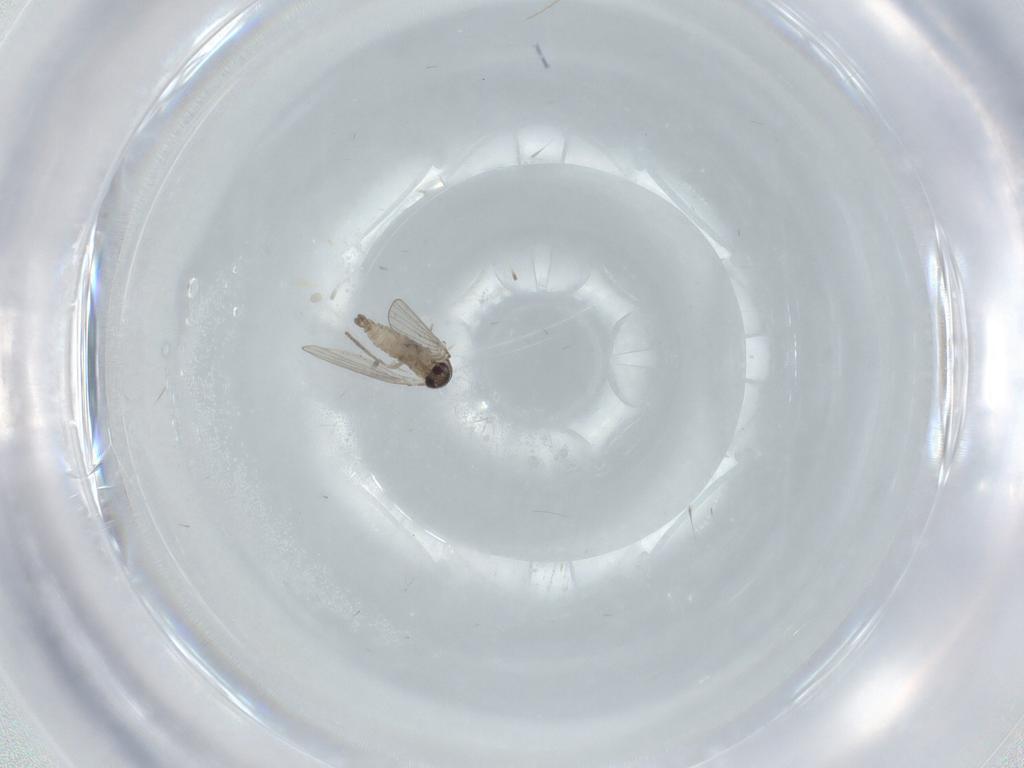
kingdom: Animalia
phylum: Arthropoda
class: Insecta
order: Diptera
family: Psychodidae
